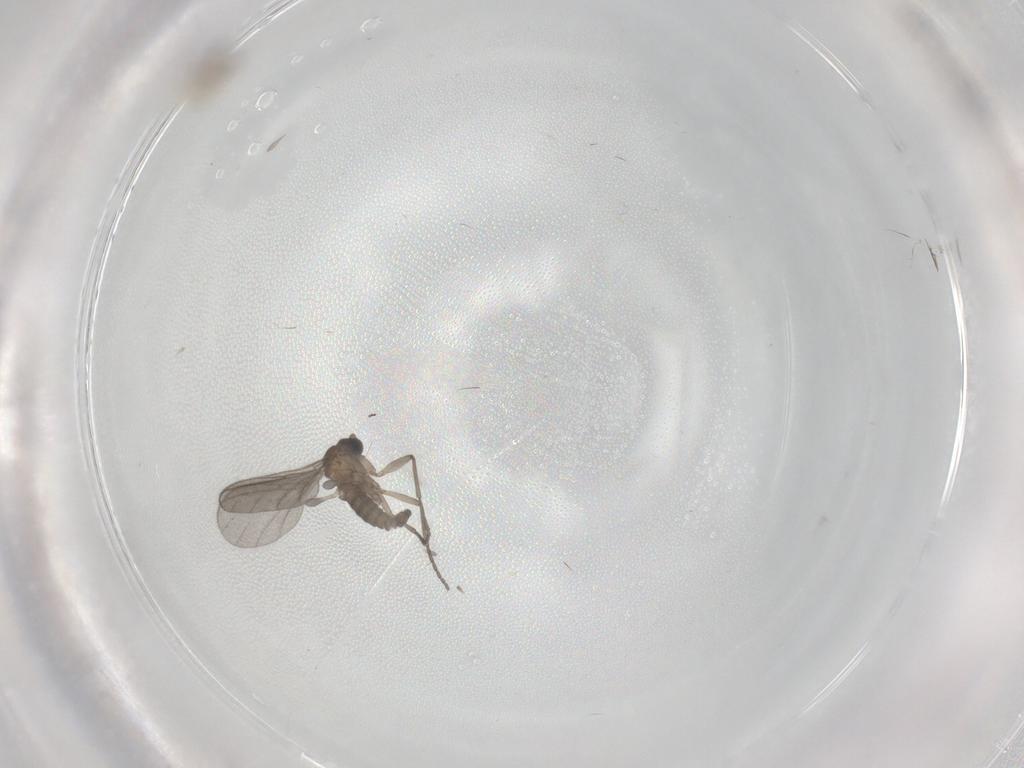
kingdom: Animalia
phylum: Arthropoda
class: Insecta
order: Diptera
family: Sciaridae
